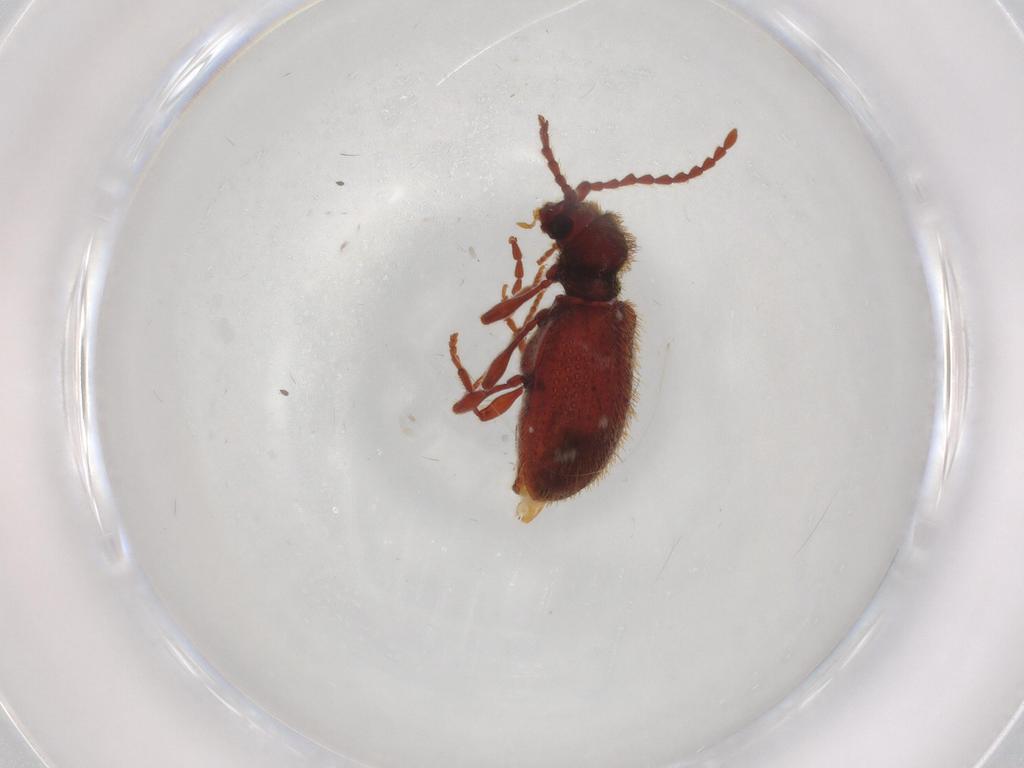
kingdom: Animalia
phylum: Arthropoda
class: Insecta
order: Coleoptera
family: Ptinidae
